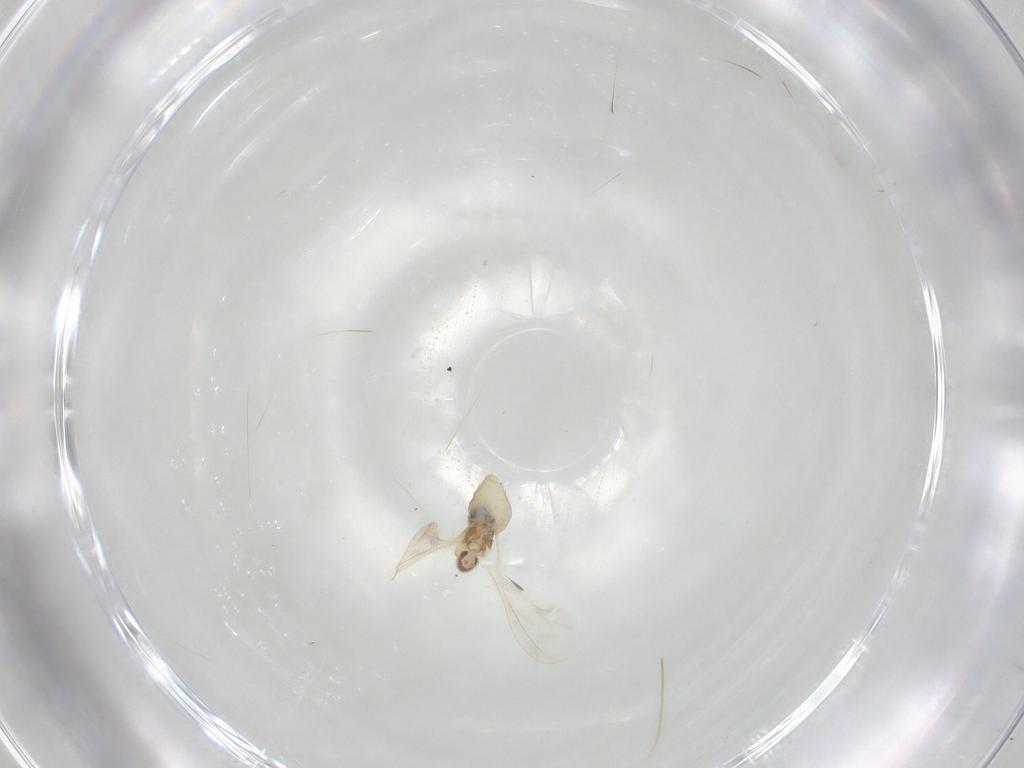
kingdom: Animalia
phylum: Arthropoda
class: Insecta
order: Diptera
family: Cecidomyiidae
